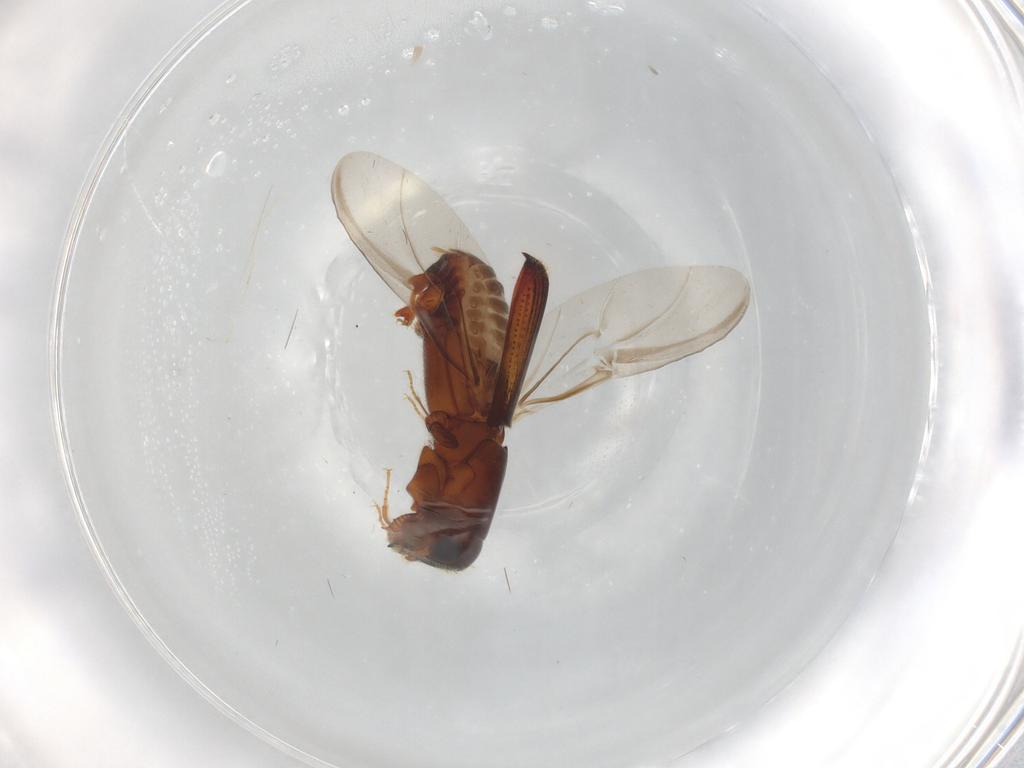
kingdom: Animalia
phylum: Arthropoda
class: Insecta
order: Coleoptera
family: Curculionidae
